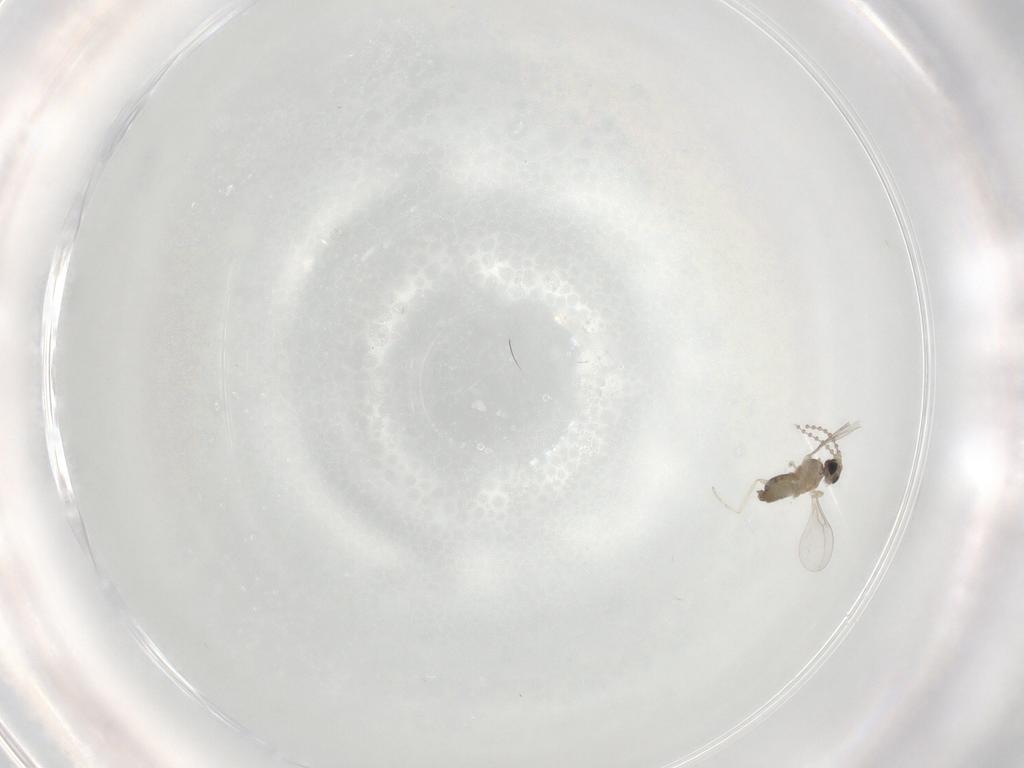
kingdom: Animalia
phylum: Arthropoda
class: Insecta
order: Diptera
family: Cecidomyiidae
